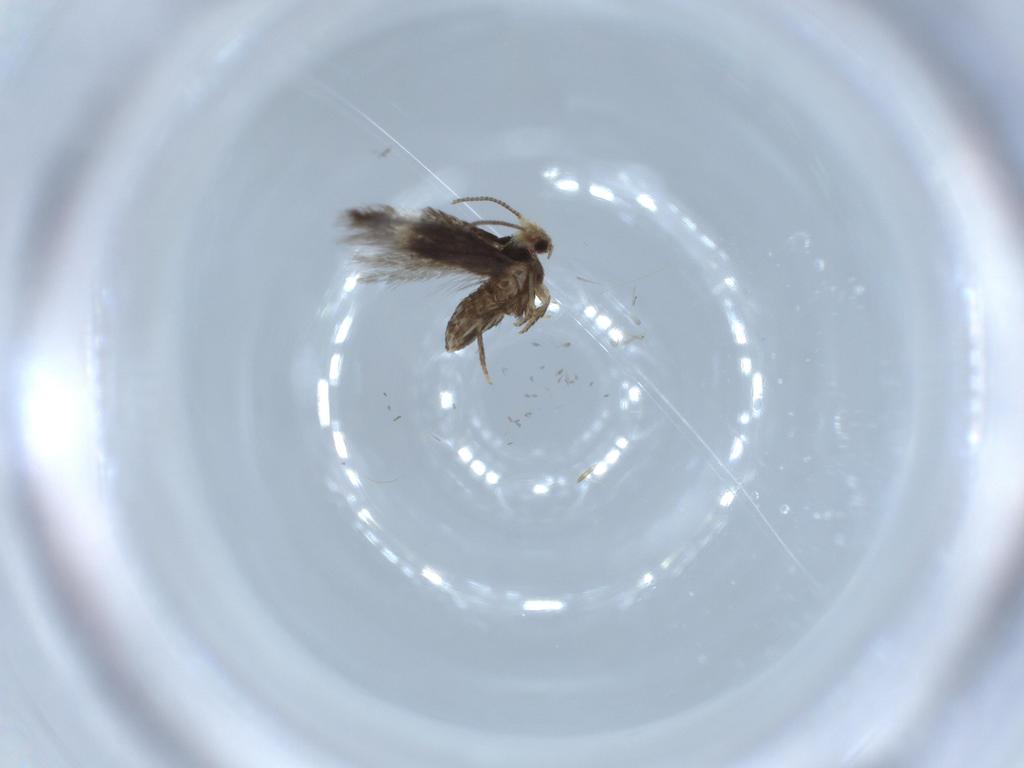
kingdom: Animalia
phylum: Arthropoda
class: Insecta
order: Lepidoptera
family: Nepticulidae
